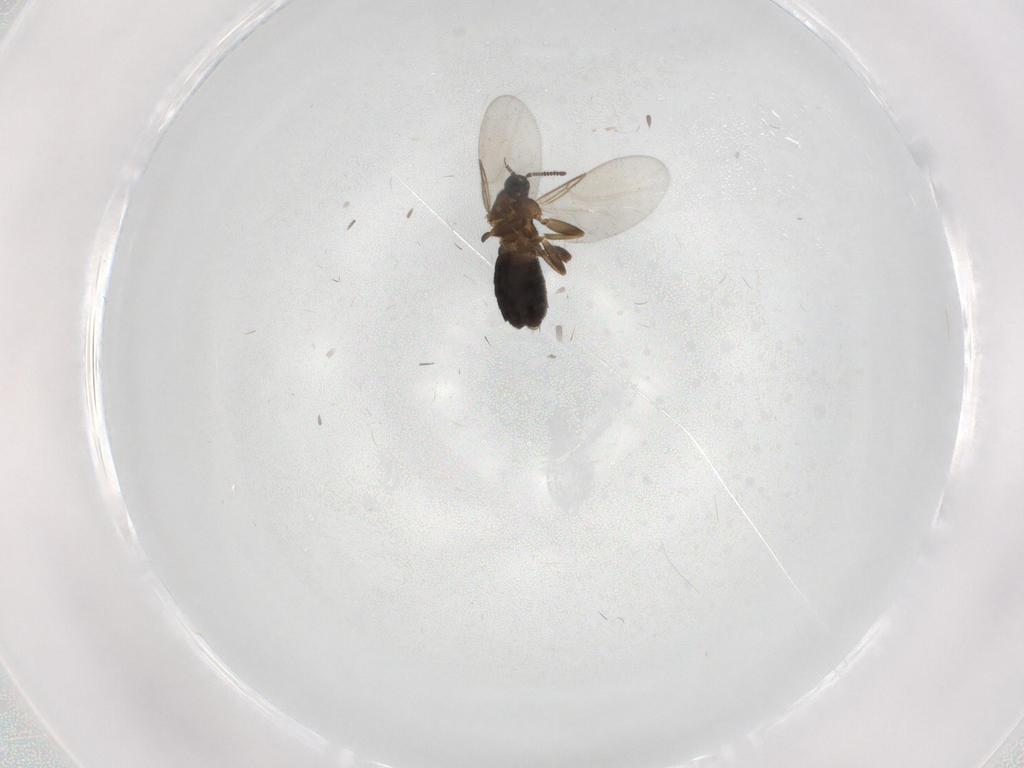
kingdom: Animalia
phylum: Arthropoda
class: Insecta
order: Diptera
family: Scatopsidae
